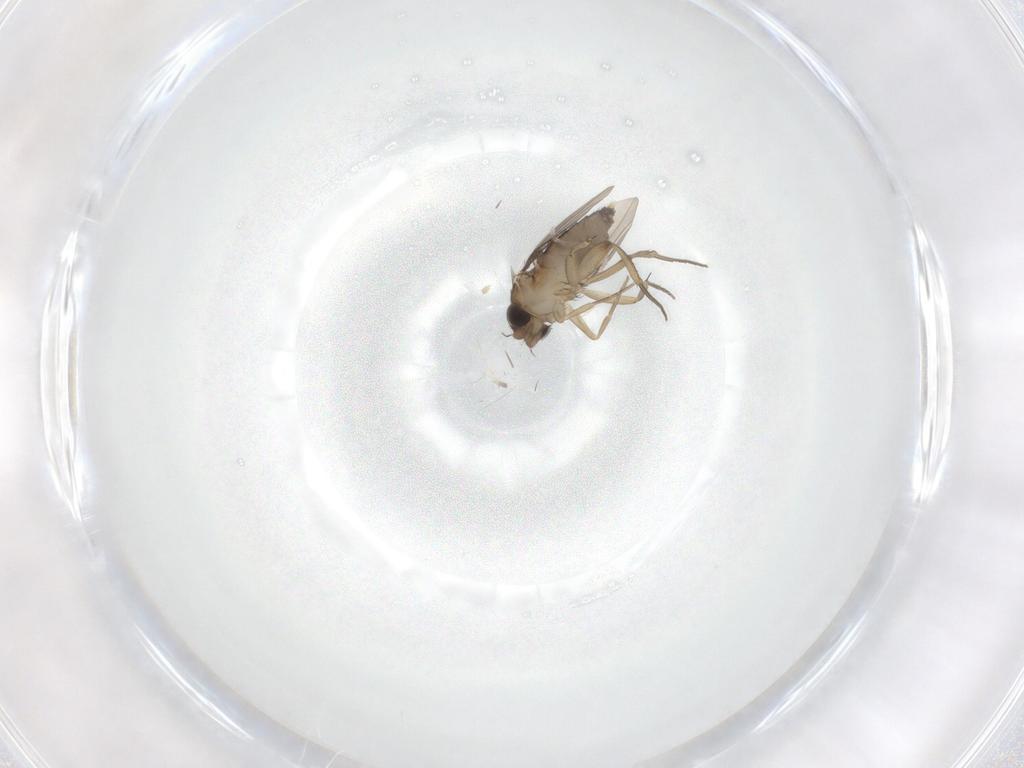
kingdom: Animalia
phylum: Arthropoda
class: Insecta
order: Diptera
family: Phoridae
